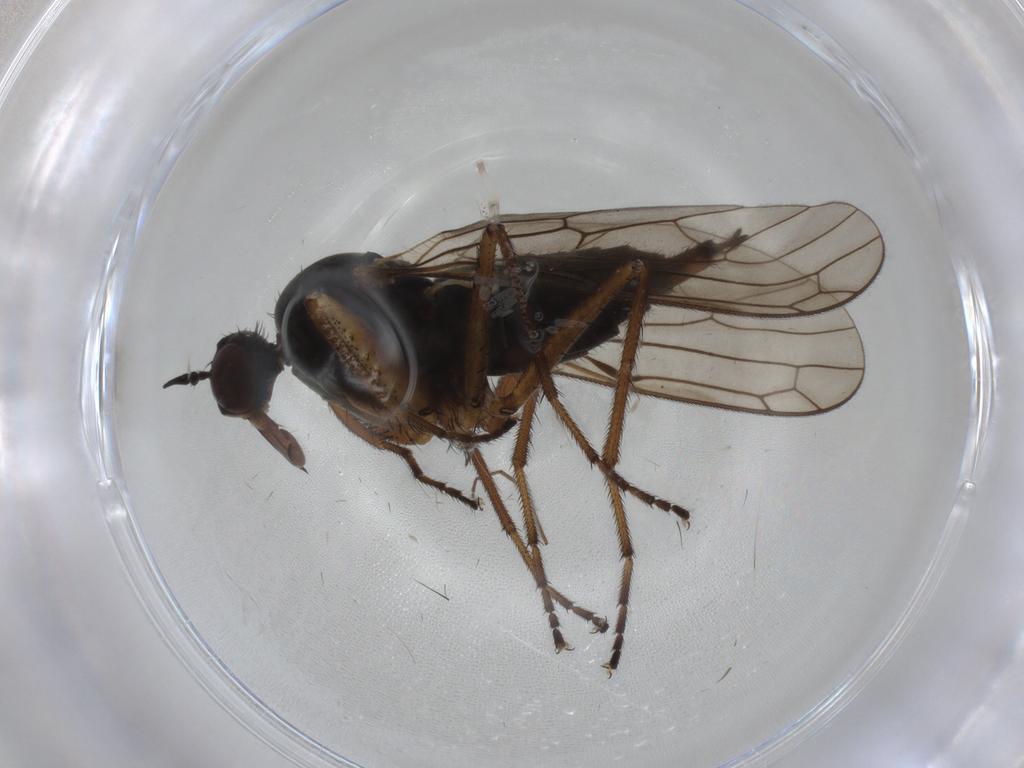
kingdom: Animalia
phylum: Arthropoda
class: Insecta
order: Diptera
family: Empididae
